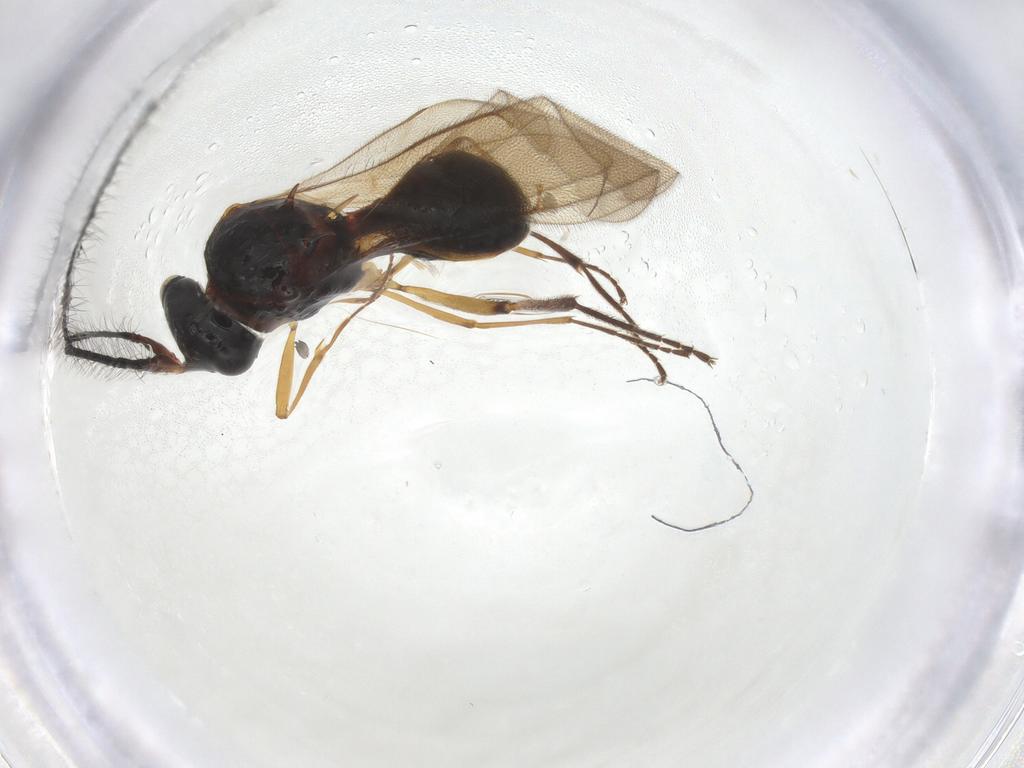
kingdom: Animalia
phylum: Arthropoda
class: Insecta
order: Hymenoptera
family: Scelionidae
